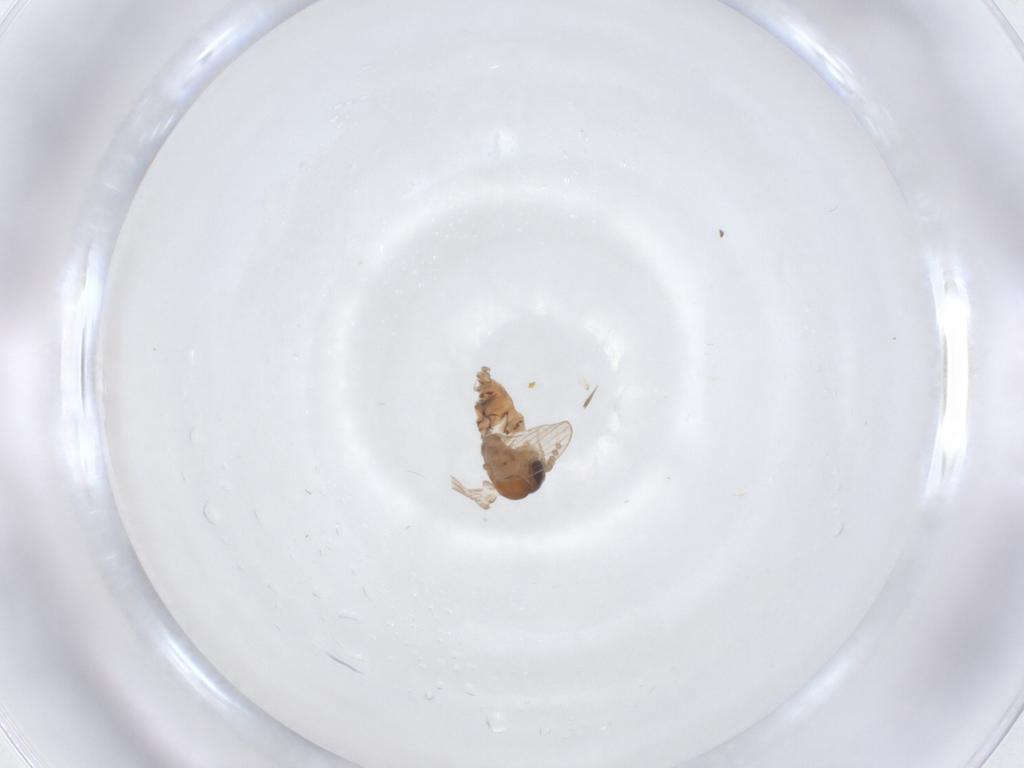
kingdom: Animalia
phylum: Arthropoda
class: Insecta
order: Diptera
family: Psychodidae
